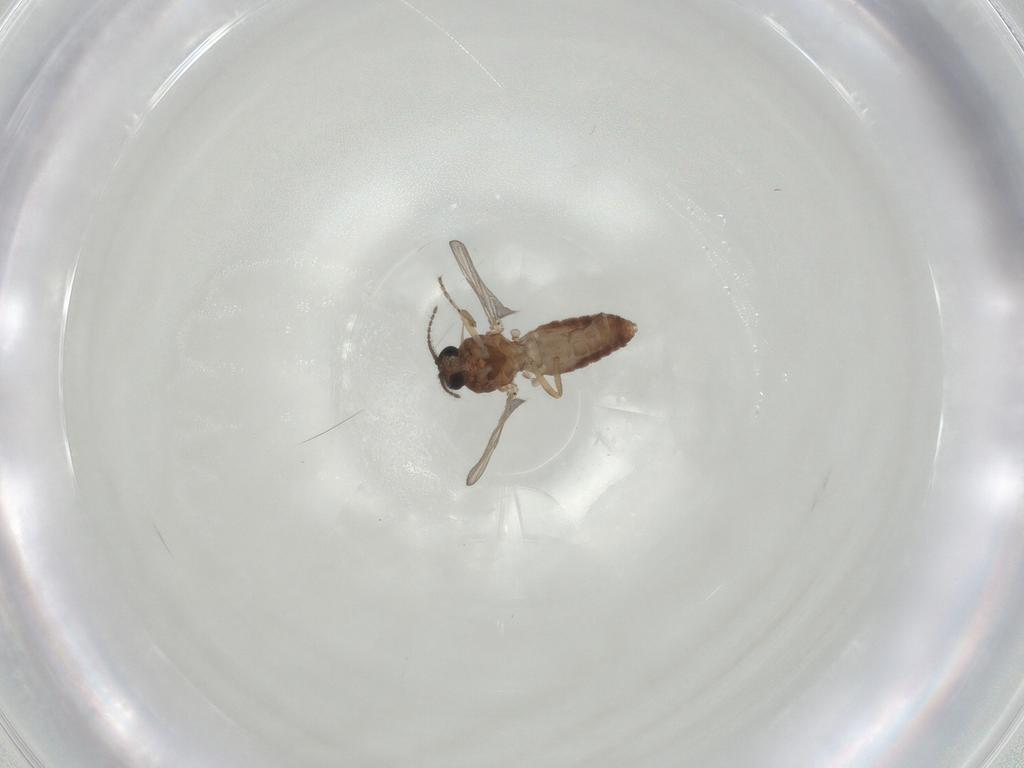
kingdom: Animalia
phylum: Arthropoda
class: Insecta
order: Diptera
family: Ceratopogonidae
